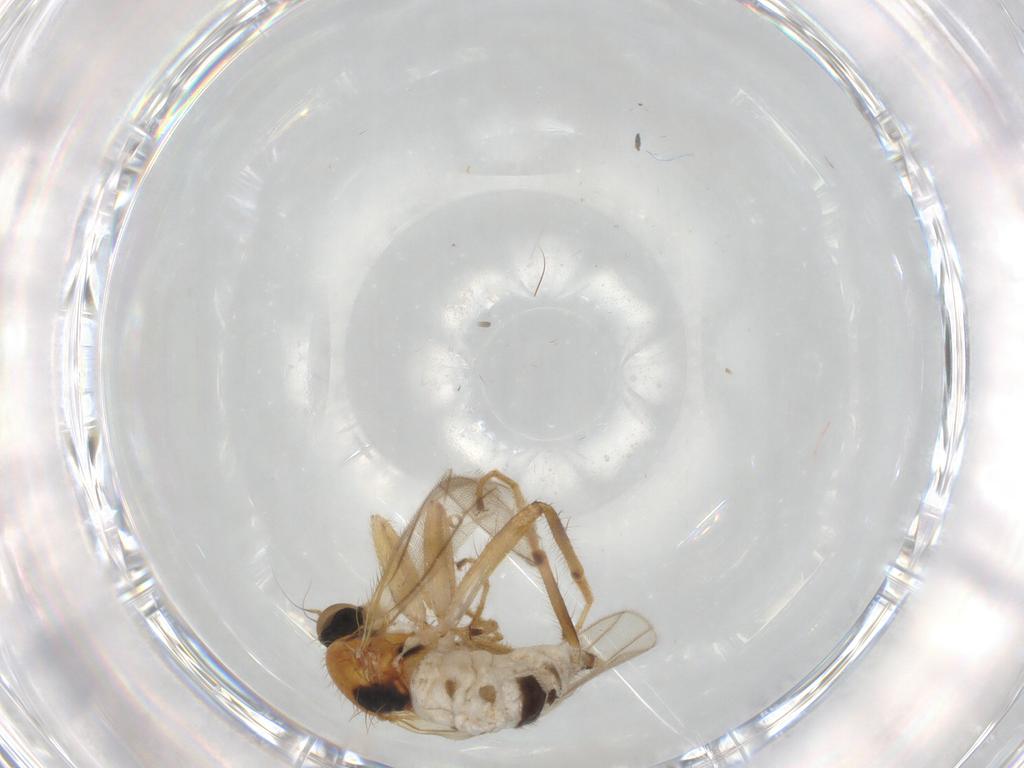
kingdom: Animalia
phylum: Arthropoda
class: Insecta
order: Diptera
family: Hybotidae
